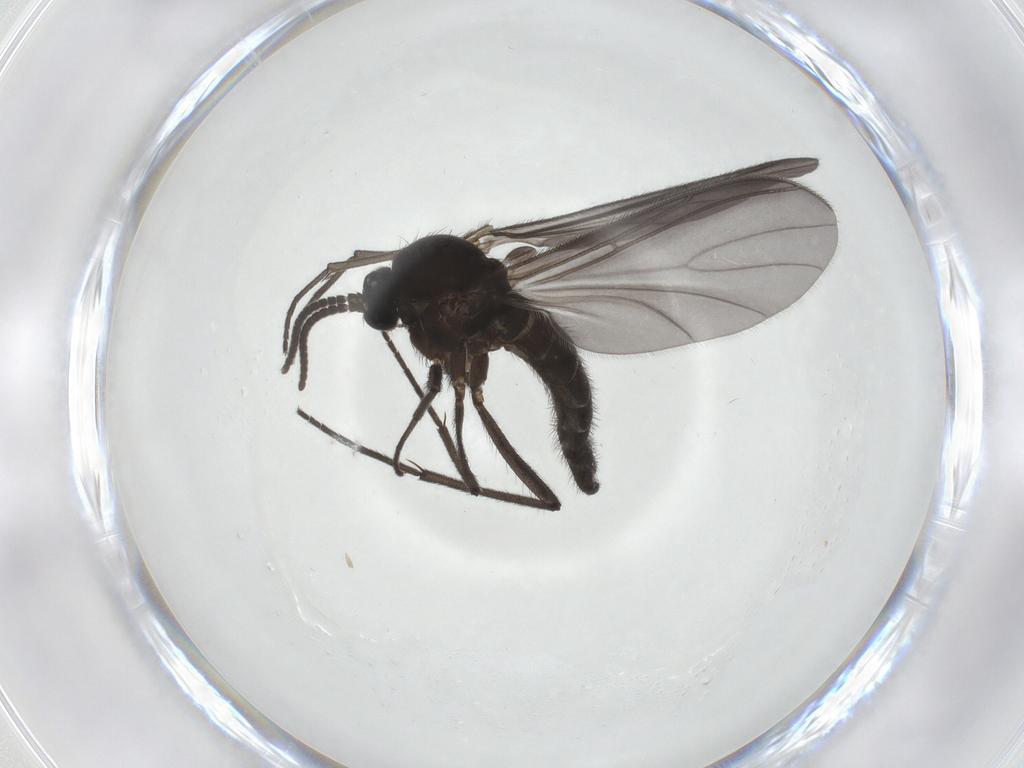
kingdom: Animalia
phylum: Arthropoda
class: Insecta
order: Diptera
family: Sciaridae
